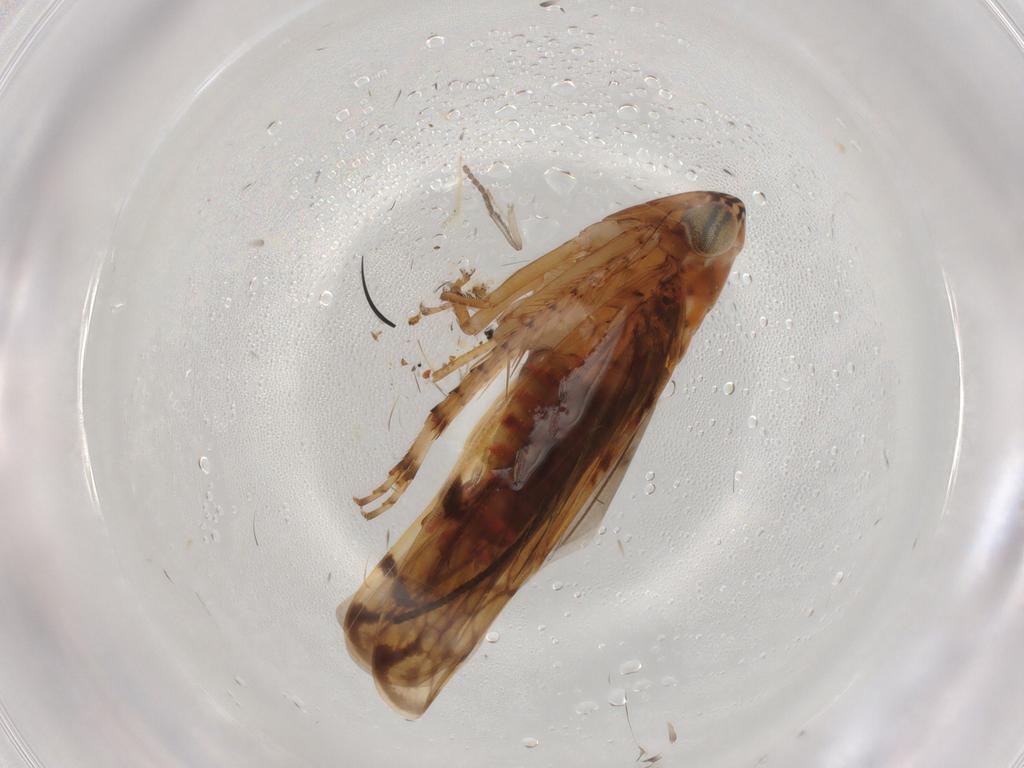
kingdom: Animalia
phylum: Arthropoda
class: Insecta
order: Hemiptera
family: Cicadellidae
